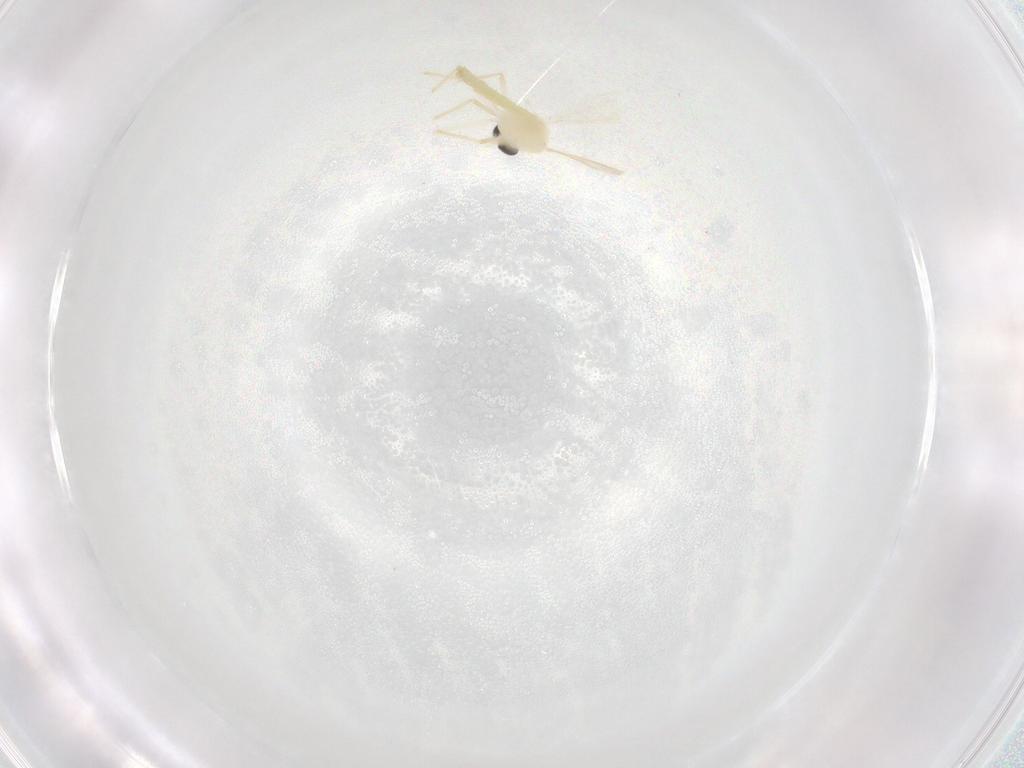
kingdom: Animalia
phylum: Arthropoda
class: Insecta
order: Diptera
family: Chironomidae
